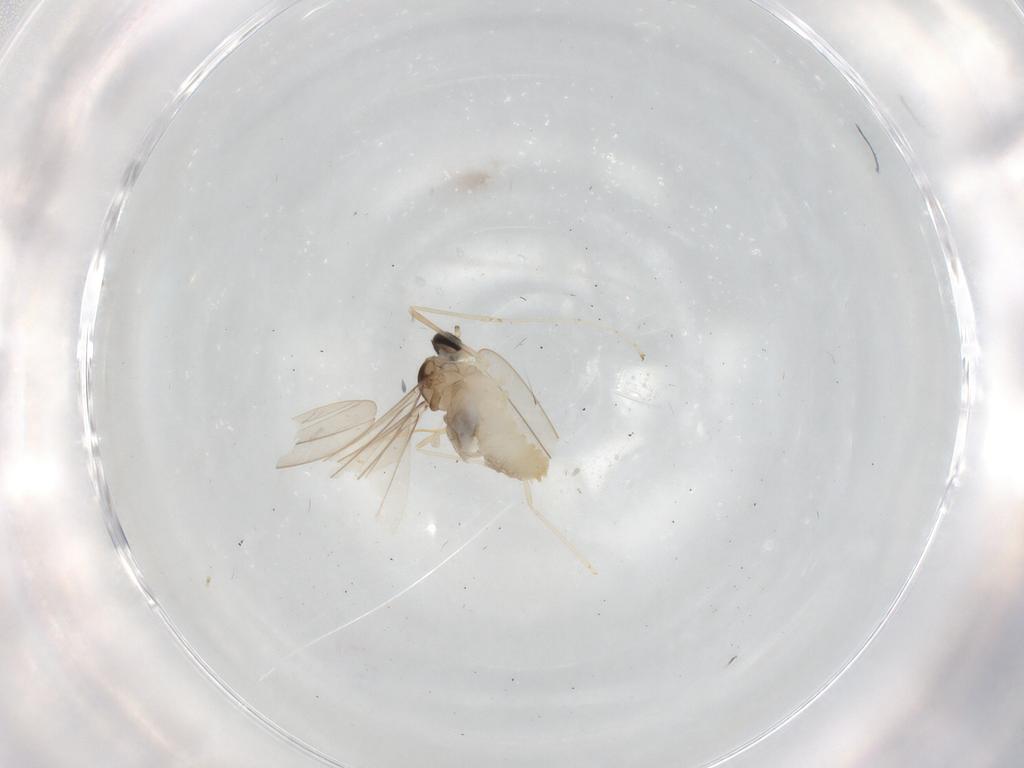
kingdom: Animalia
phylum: Arthropoda
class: Insecta
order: Diptera
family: Cecidomyiidae
